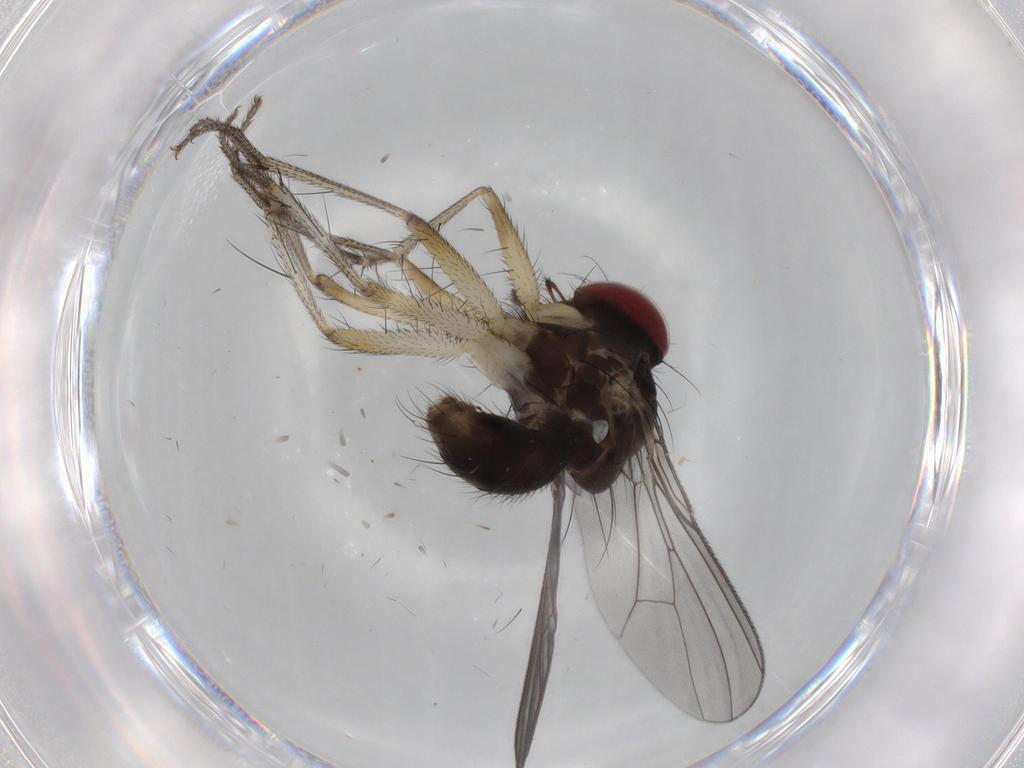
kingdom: Animalia
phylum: Arthropoda
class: Insecta
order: Diptera
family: Anthomyiidae
